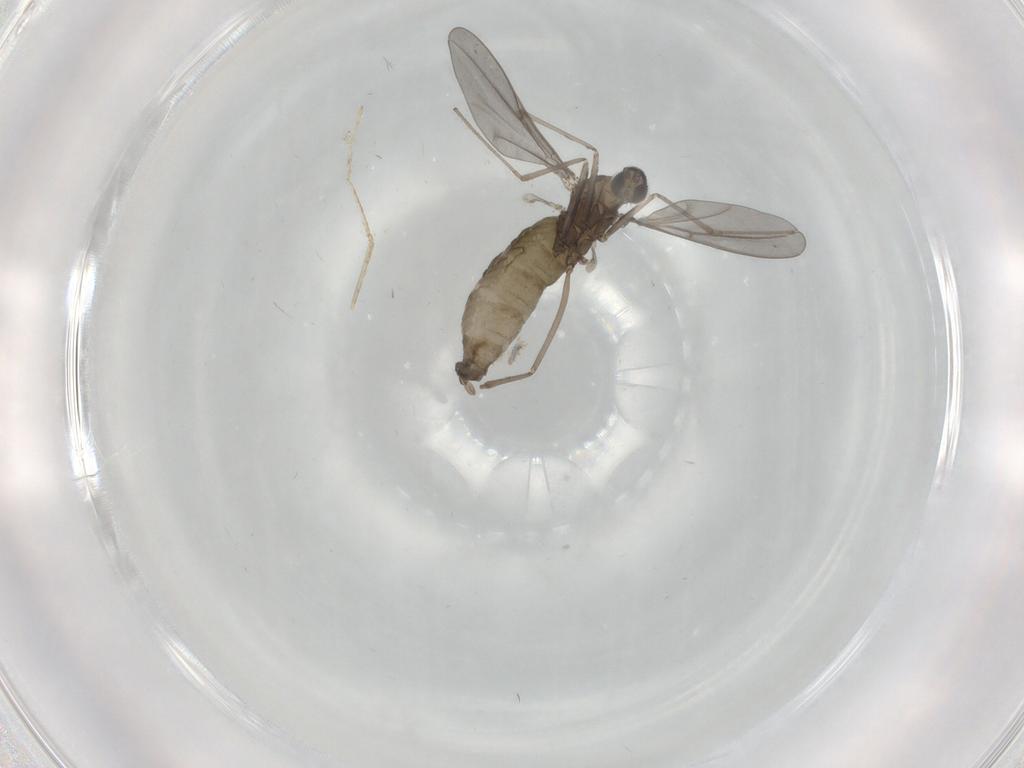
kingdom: Animalia
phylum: Arthropoda
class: Insecta
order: Diptera
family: Cecidomyiidae
